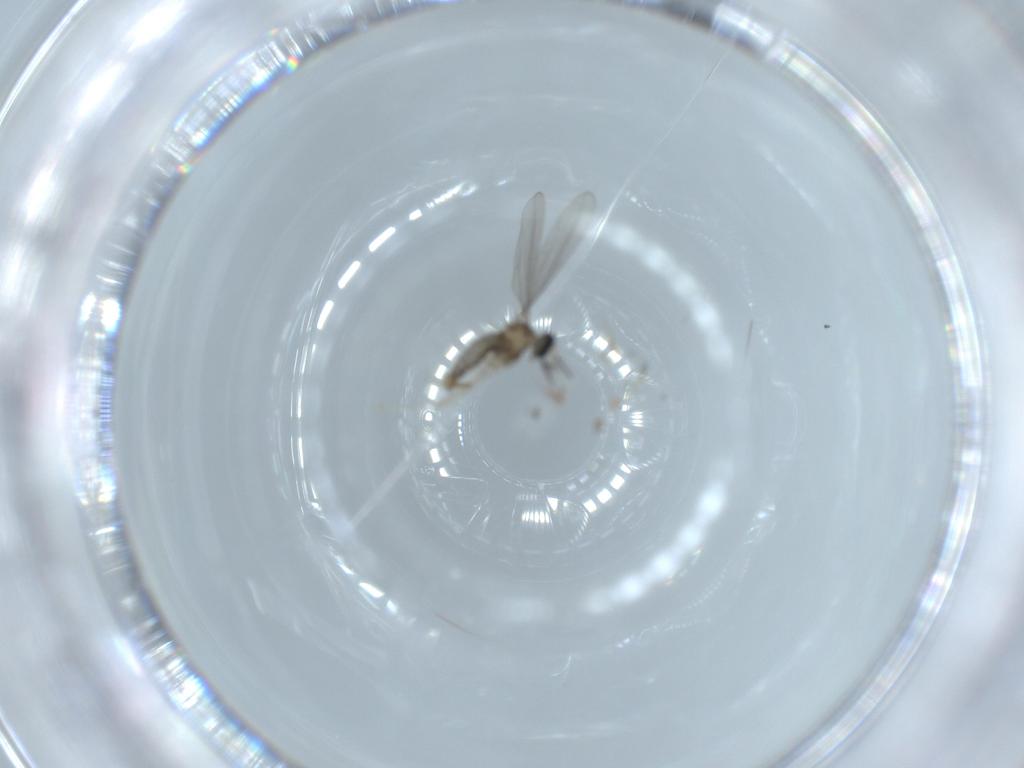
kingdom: Animalia
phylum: Arthropoda
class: Insecta
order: Diptera
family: Cecidomyiidae
